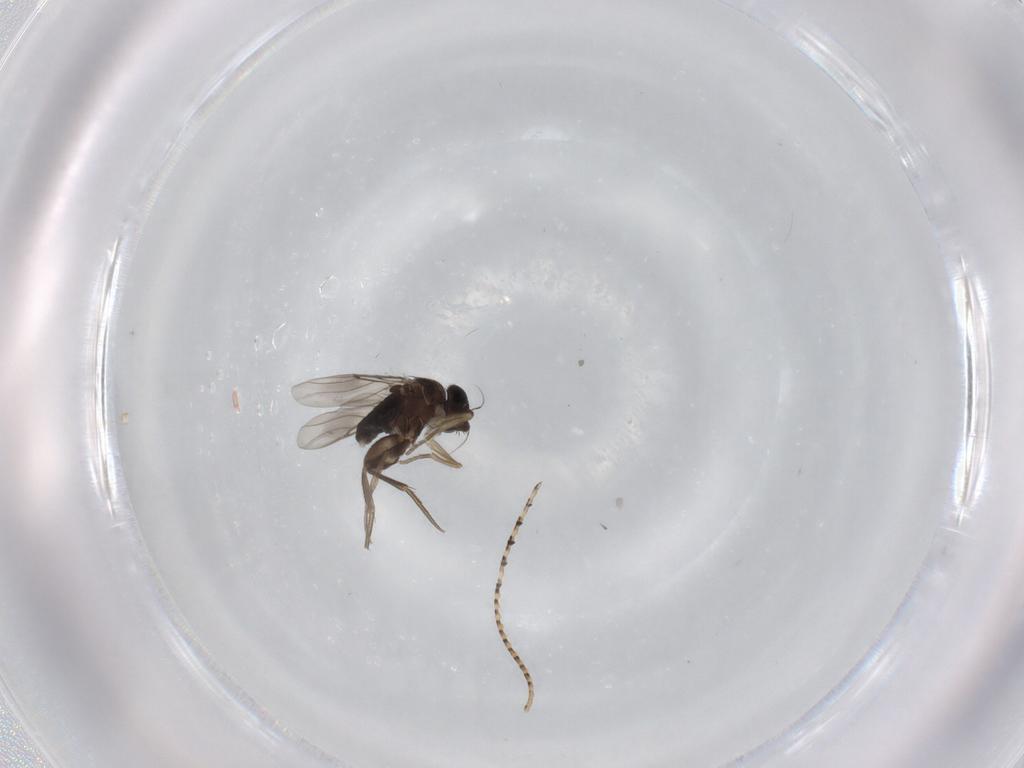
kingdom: Animalia
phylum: Arthropoda
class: Insecta
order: Diptera
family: Phoridae
